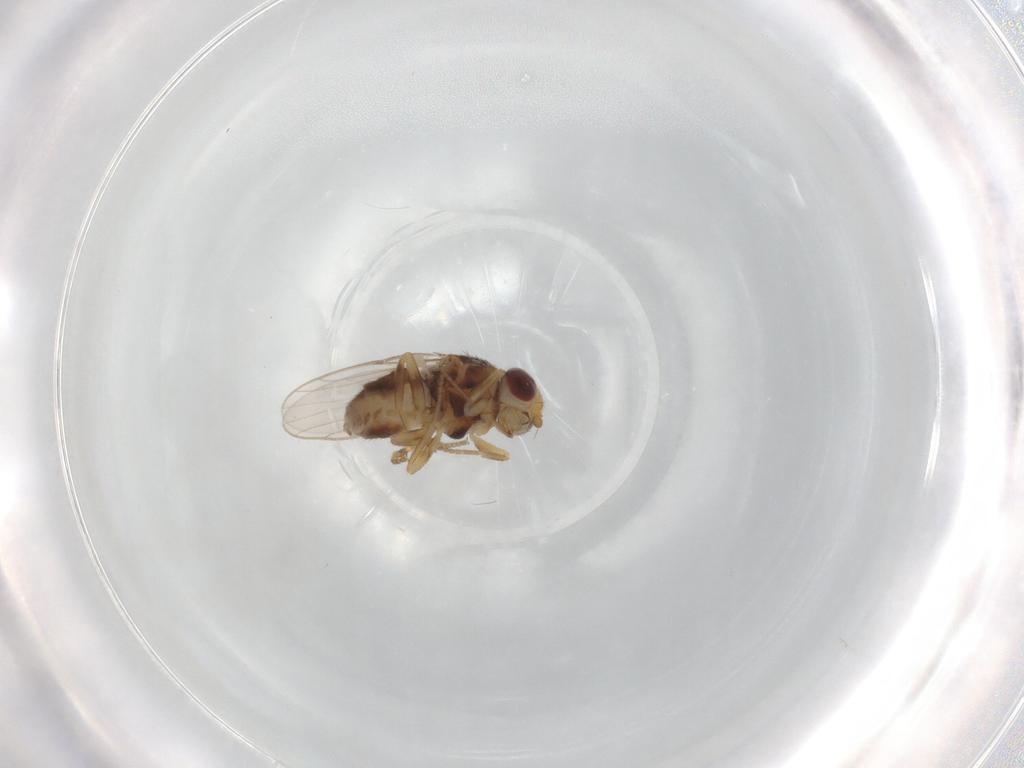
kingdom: Animalia
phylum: Arthropoda
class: Insecta
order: Diptera
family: Chloropidae
